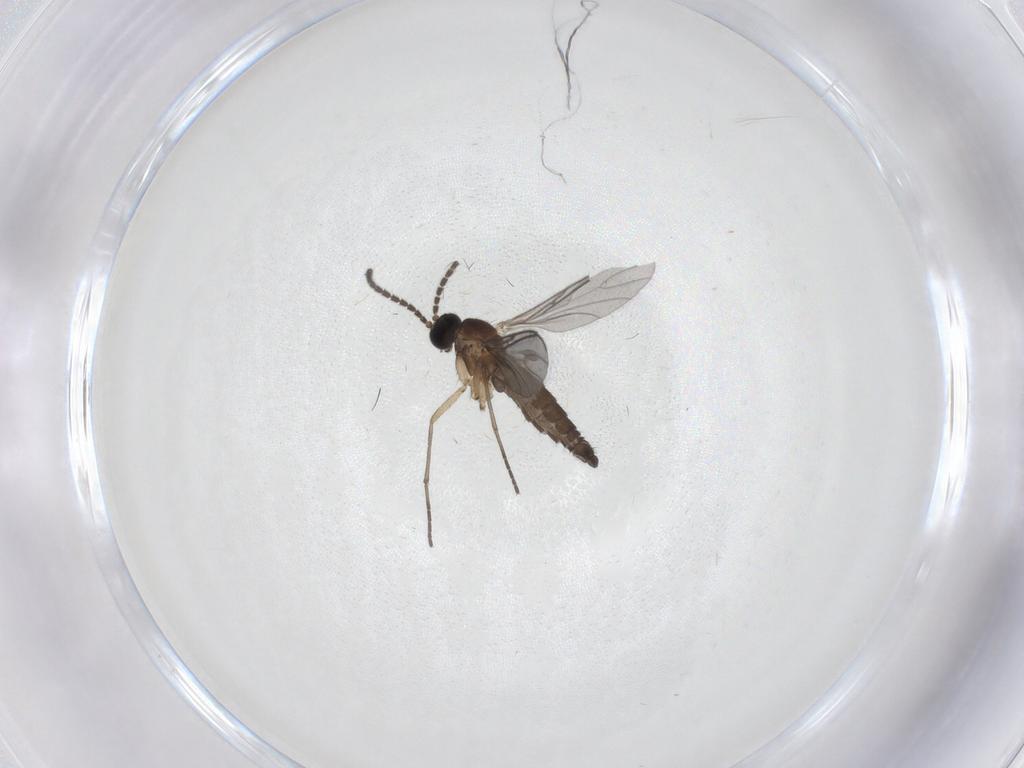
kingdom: Animalia
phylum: Arthropoda
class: Insecta
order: Diptera
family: Sciaridae
